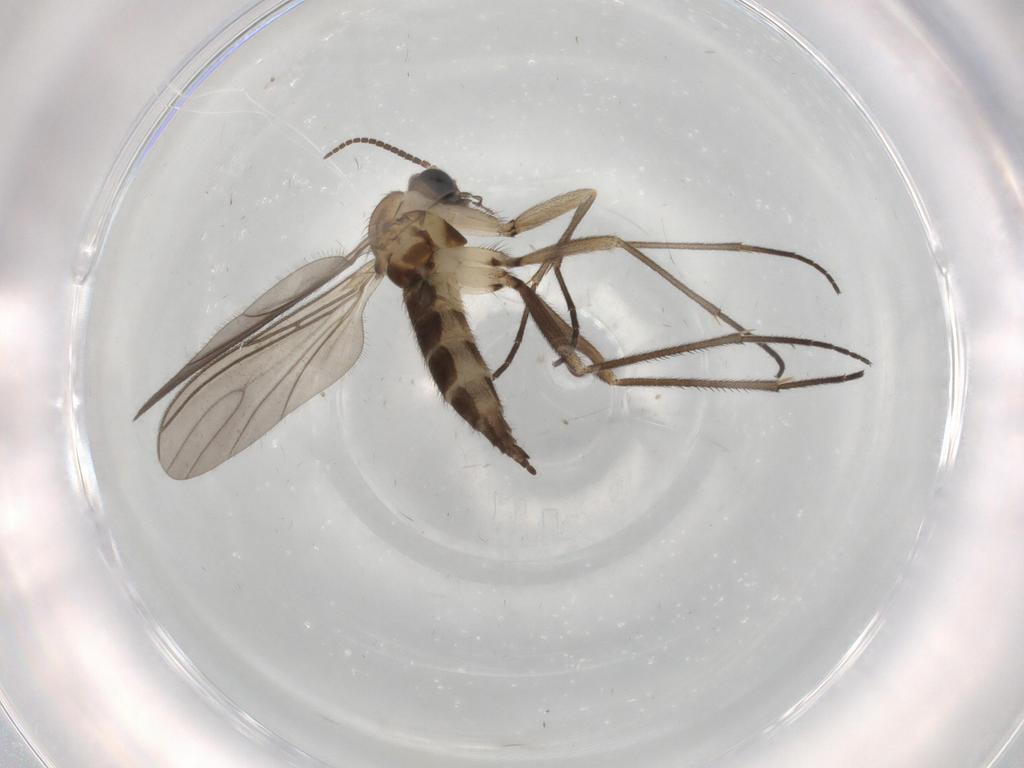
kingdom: Animalia
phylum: Arthropoda
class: Insecta
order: Diptera
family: Sciaridae
